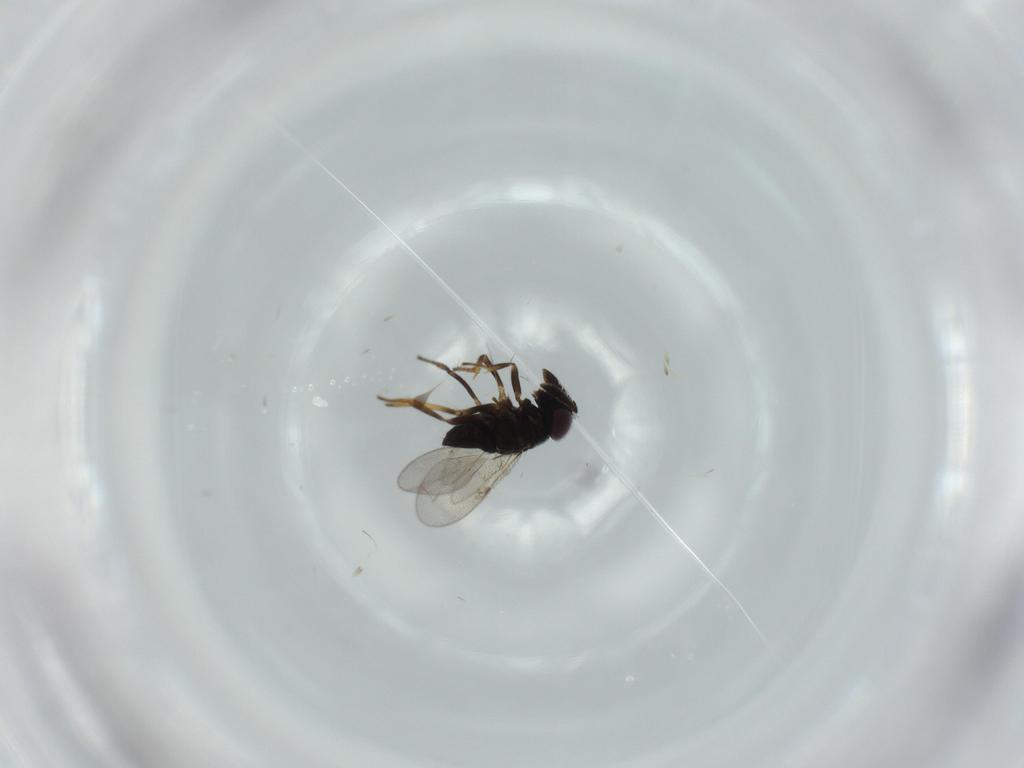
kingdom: Animalia
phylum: Arthropoda
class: Insecta
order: Hymenoptera
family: Encyrtidae
